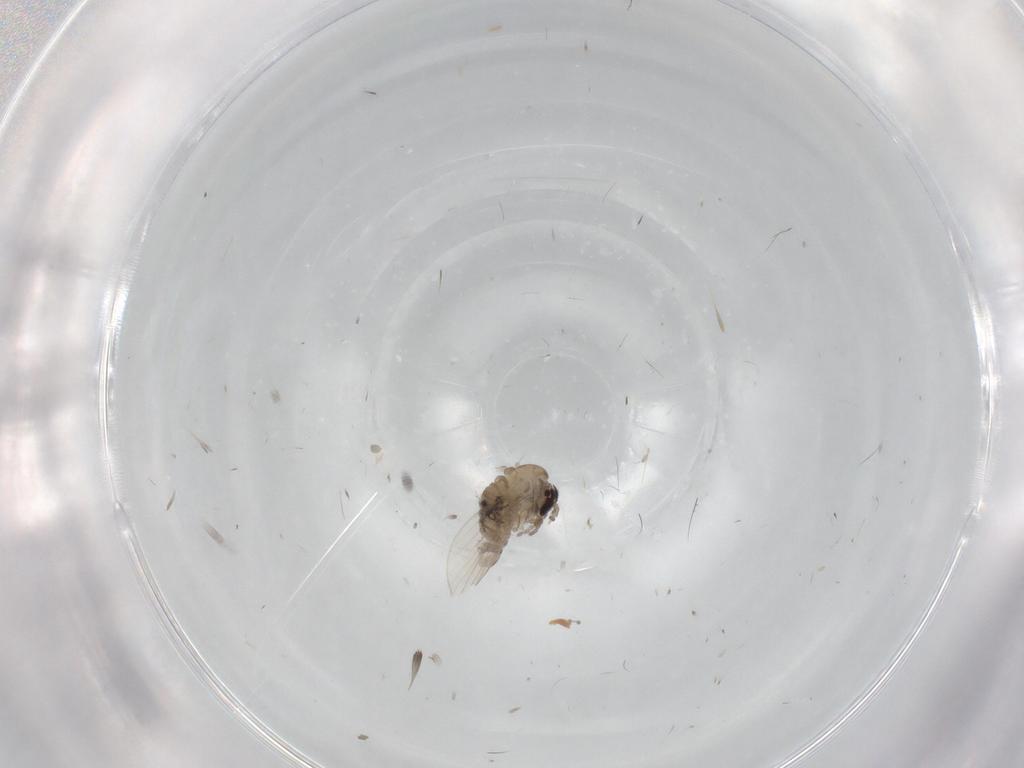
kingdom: Animalia
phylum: Arthropoda
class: Insecta
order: Diptera
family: Psychodidae
